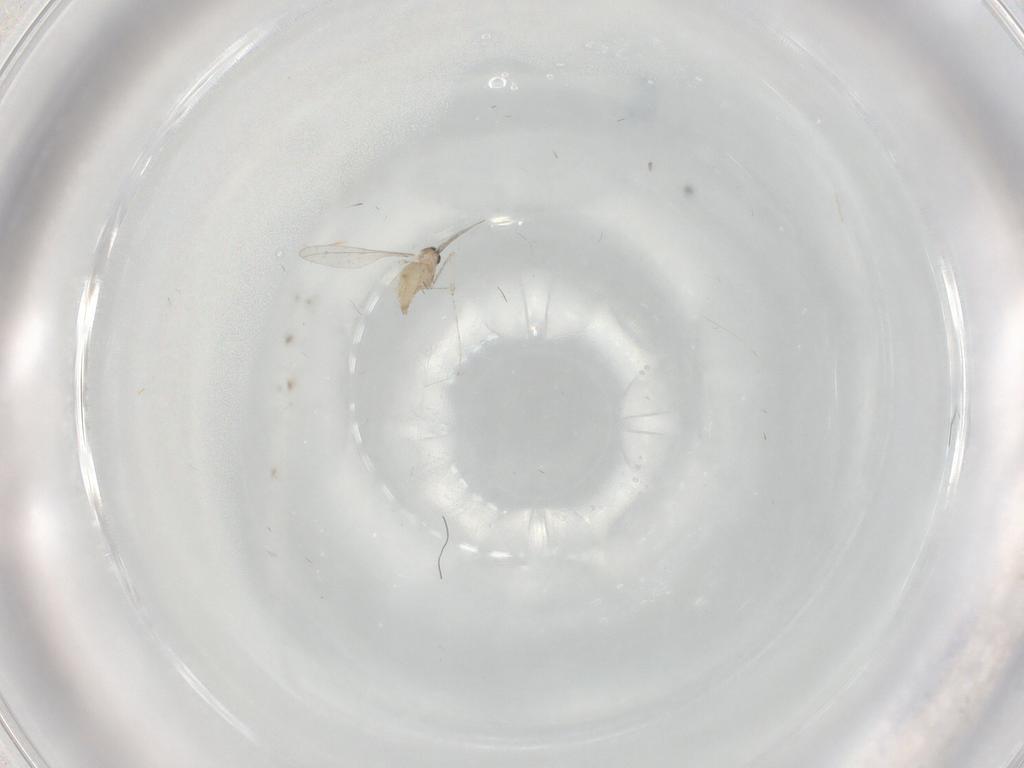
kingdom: Animalia
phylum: Arthropoda
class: Insecta
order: Diptera
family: Cecidomyiidae
